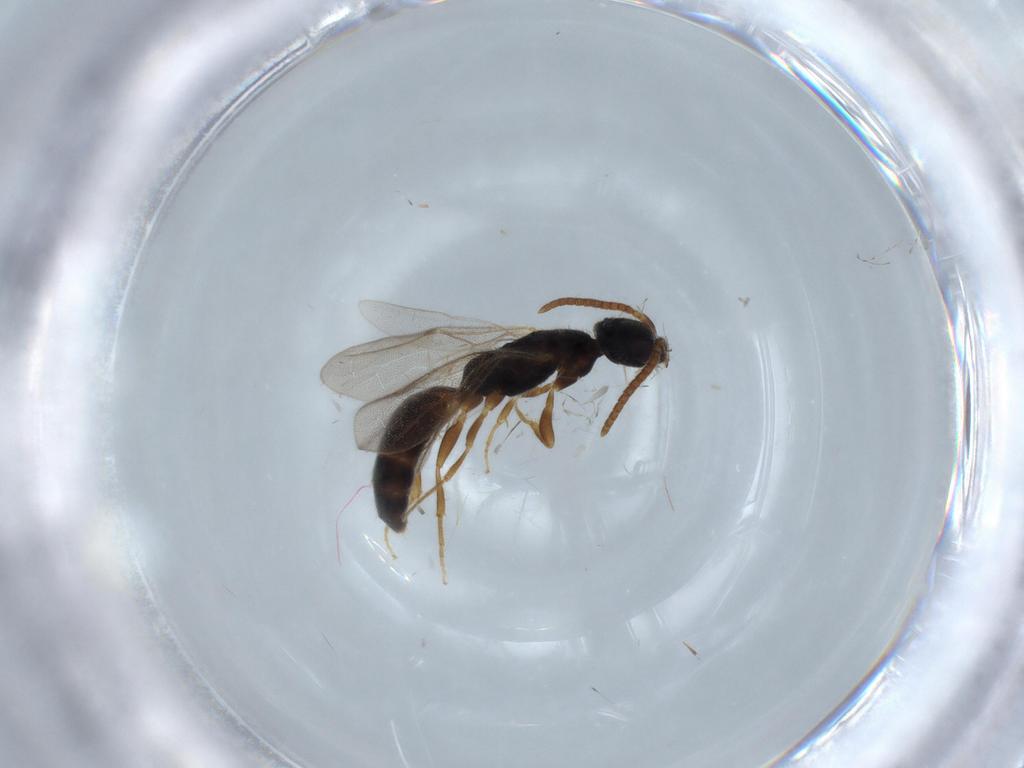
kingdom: Animalia
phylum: Arthropoda
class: Insecta
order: Hymenoptera
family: Bethylidae
